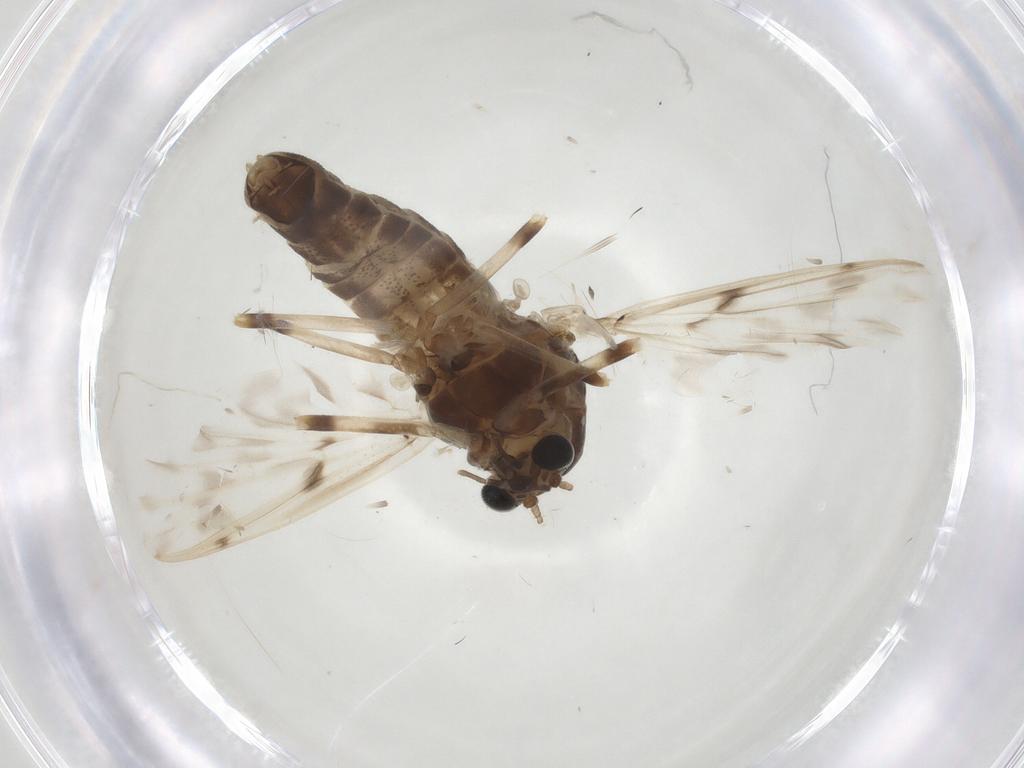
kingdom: Animalia
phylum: Arthropoda
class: Insecta
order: Diptera
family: Chironomidae
